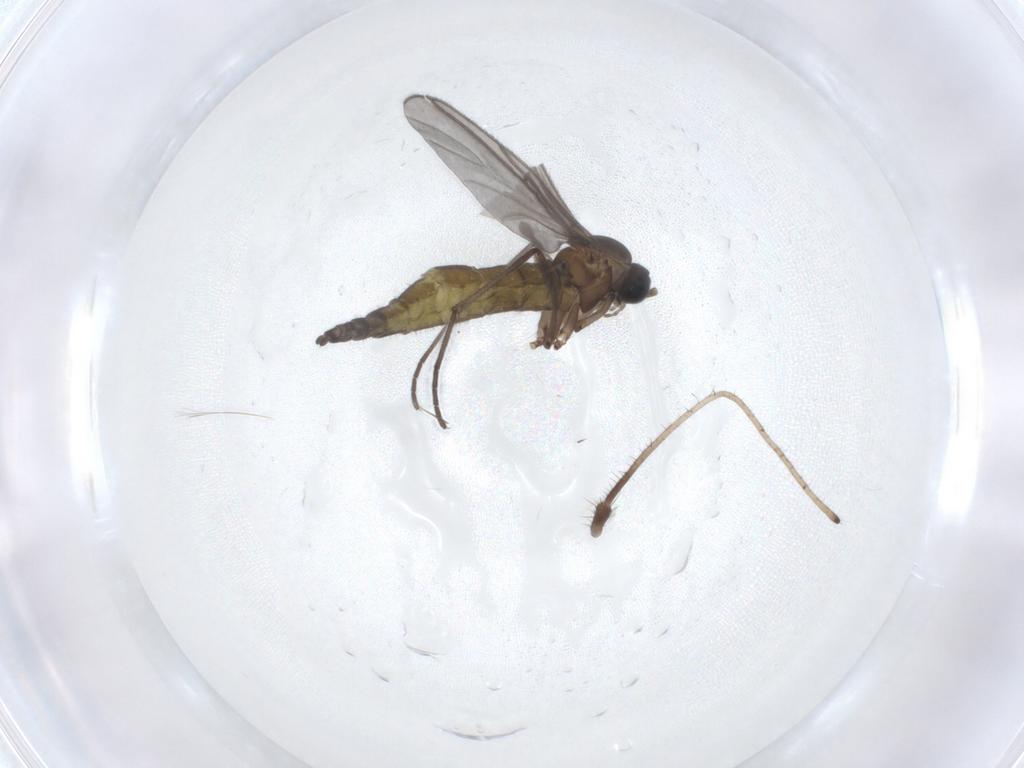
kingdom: Animalia
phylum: Arthropoda
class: Insecta
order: Diptera
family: Sciaridae
